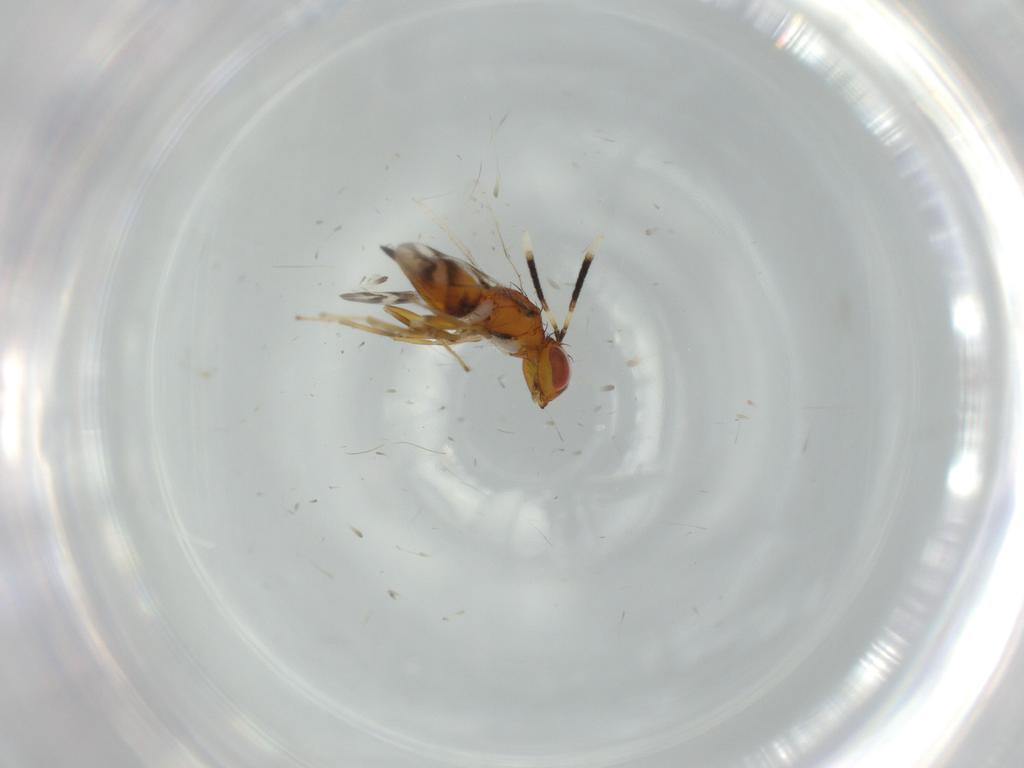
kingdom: Animalia
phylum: Arthropoda
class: Insecta
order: Hymenoptera
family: Diparidae
